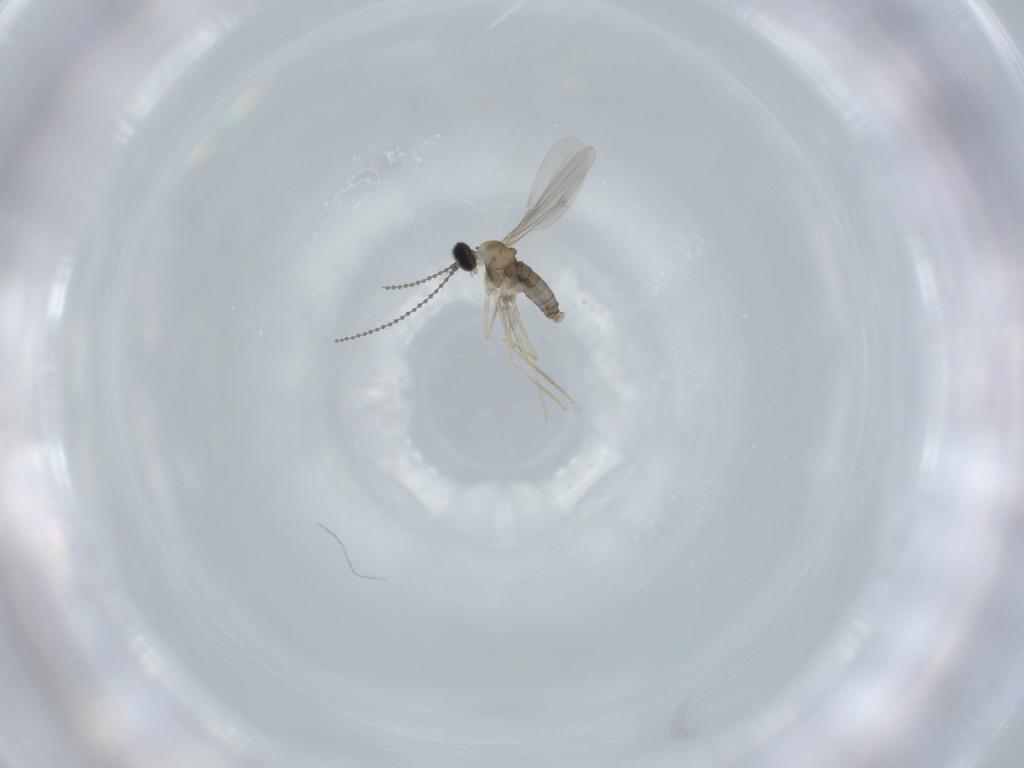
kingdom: Animalia
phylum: Arthropoda
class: Insecta
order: Diptera
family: Cecidomyiidae
